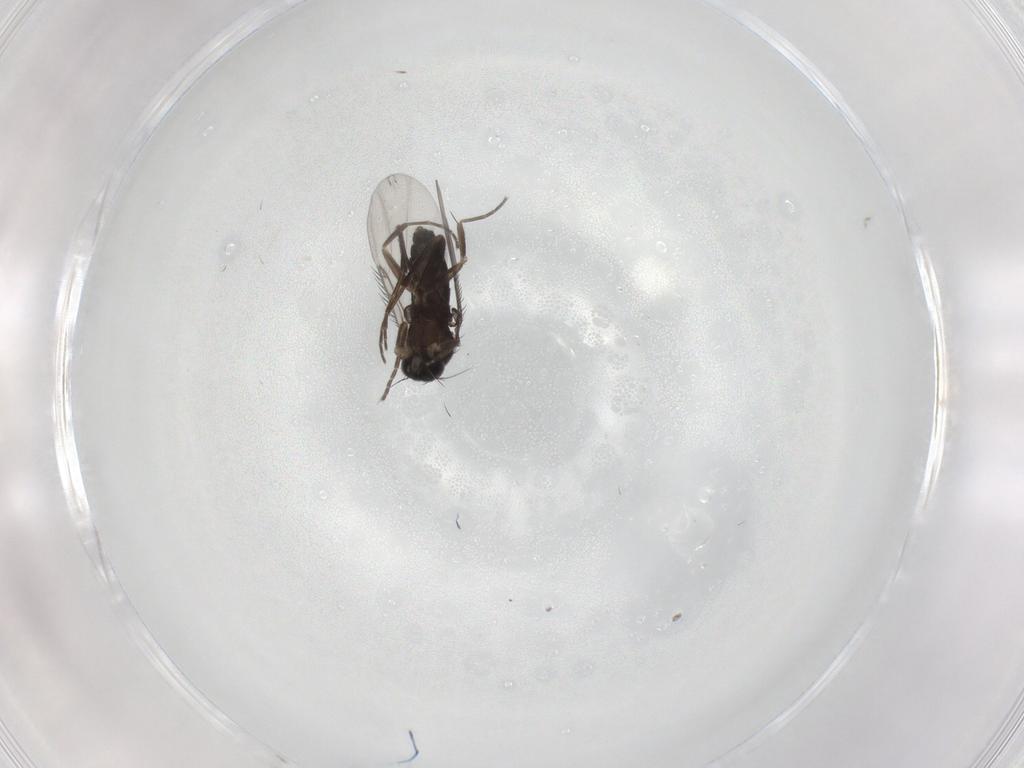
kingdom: Animalia
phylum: Arthropoda
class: Insecta
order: Diptera
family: Phoridae
